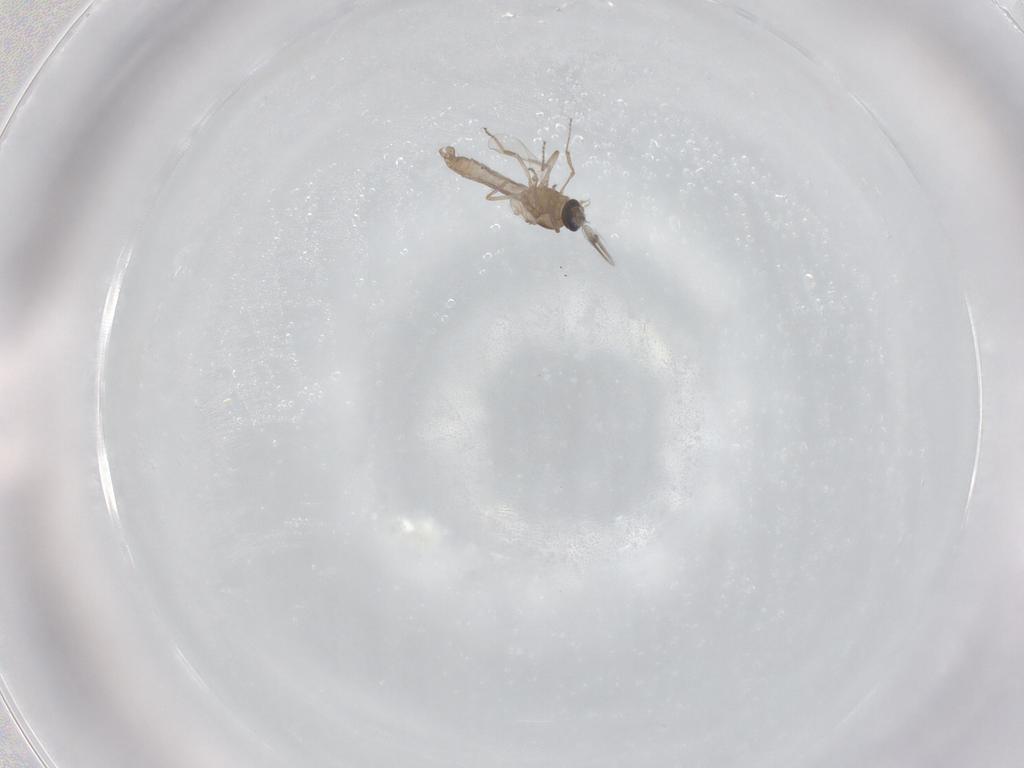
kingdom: Animalia
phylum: Arthropoda
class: Insecta
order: Diptera
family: Ceratopogonidae
